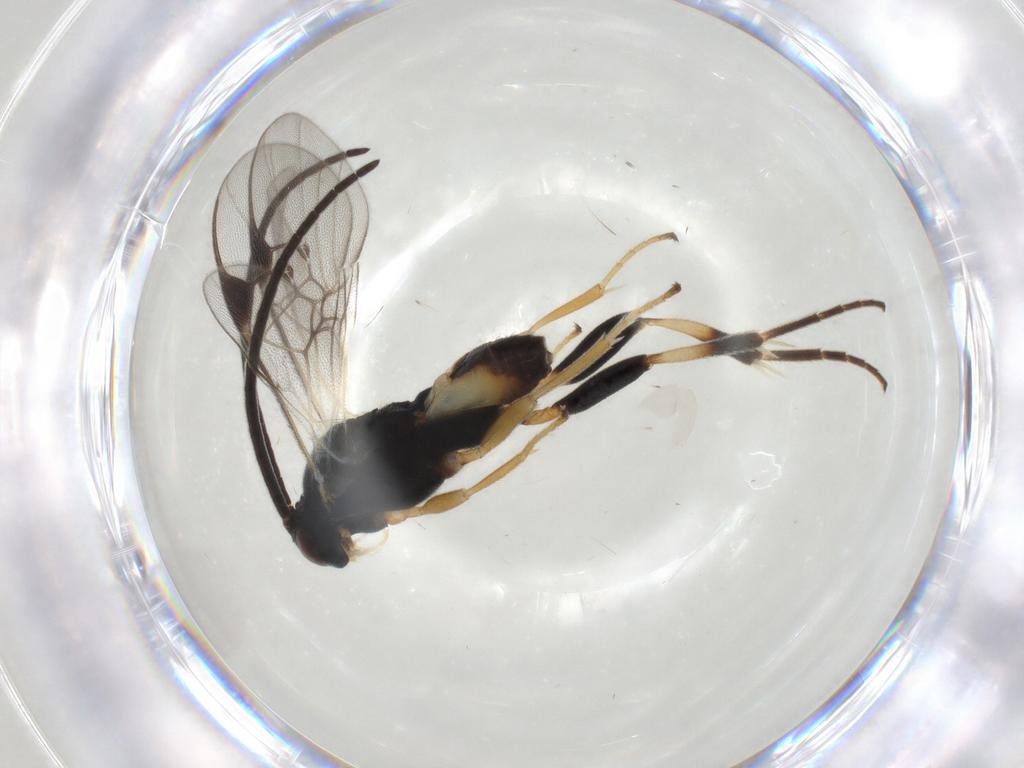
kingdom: Animalia
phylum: Arthropoda
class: Insecta
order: Hymenoptera
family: Braconidae
